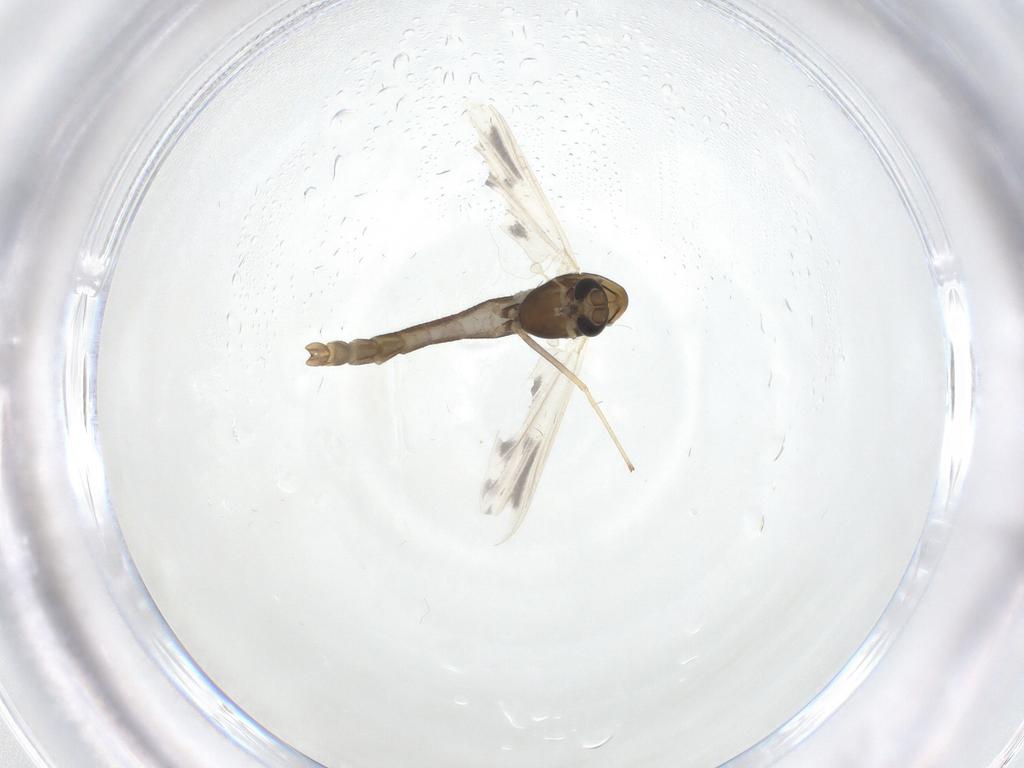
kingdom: Animalia
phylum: Arthropoda
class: Insecta
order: Diptera
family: Chironomidae
